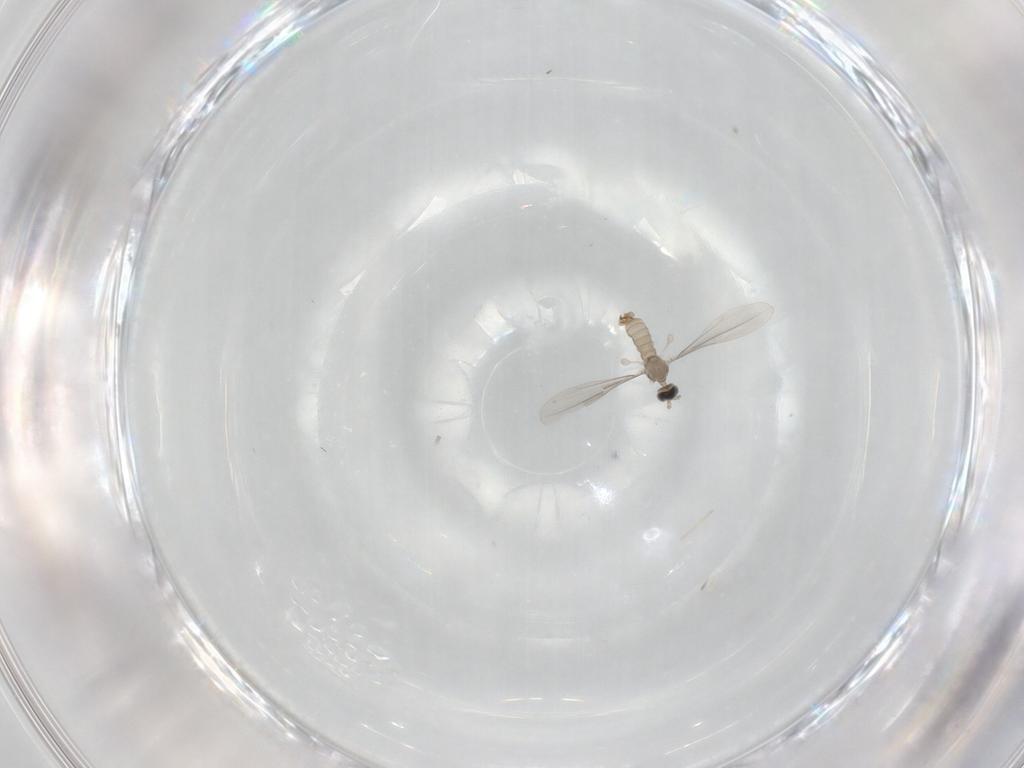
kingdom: Animalia
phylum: Arthropoda
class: Insecta
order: Diptera
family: Cecidomyiidae
